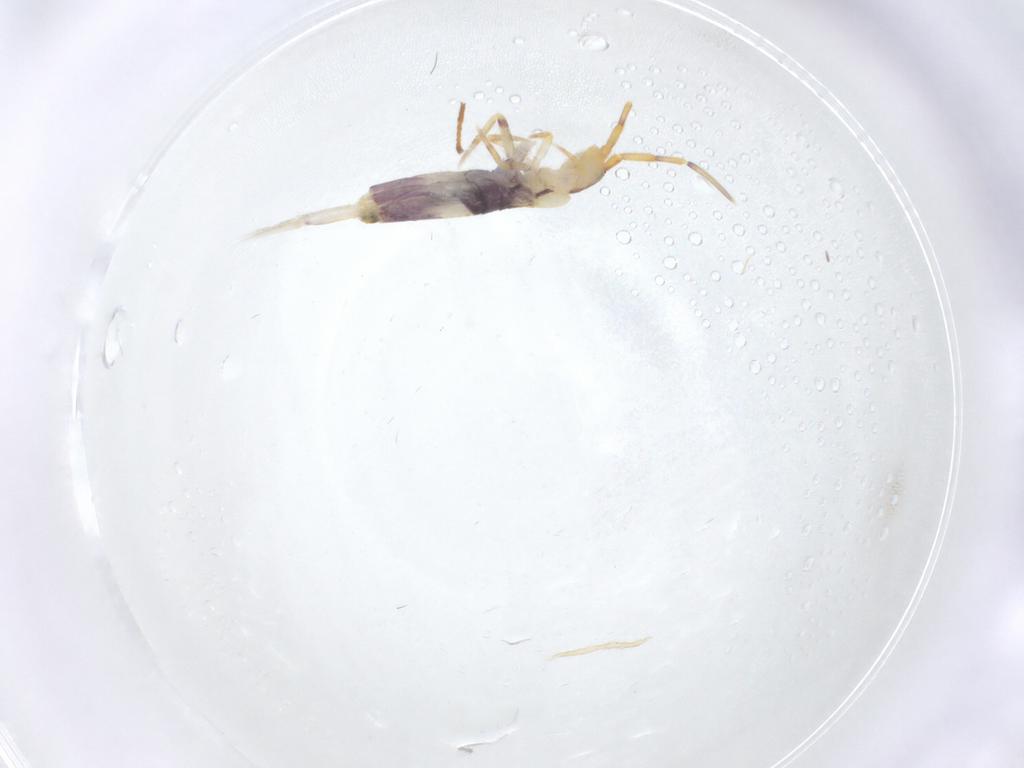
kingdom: Animalia
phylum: Arthropoda
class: Collembola
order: Entomobryomorpha
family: Entomobryidae
